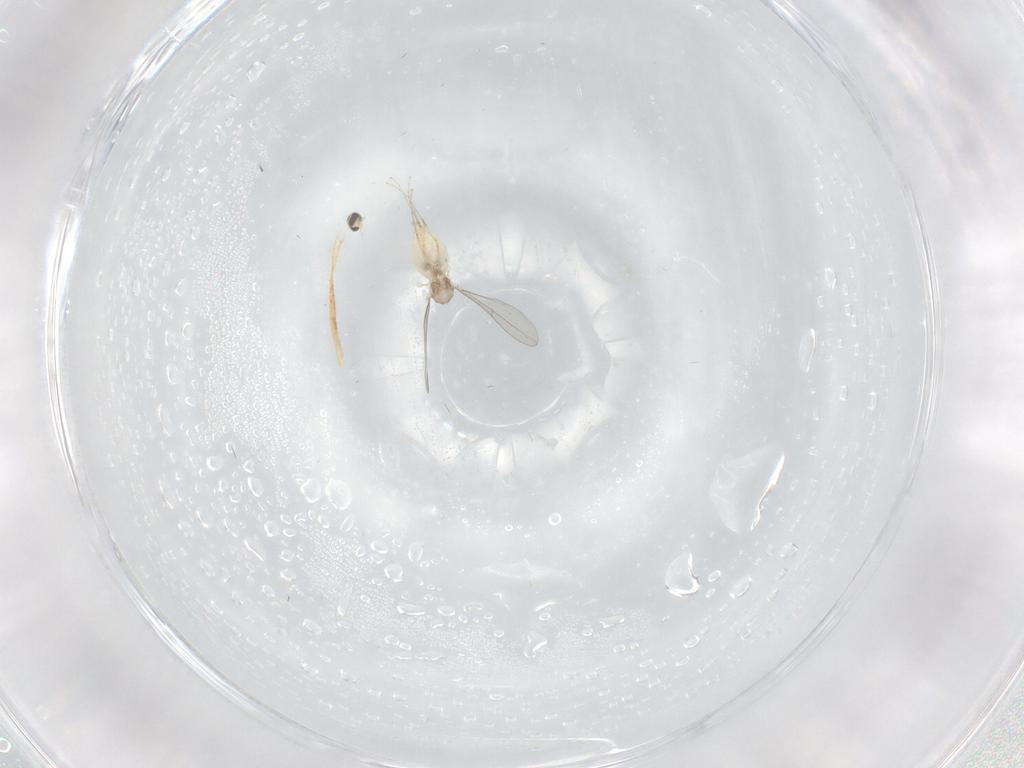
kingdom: Animalia
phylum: Arthropoda
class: Insecta
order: Diptera
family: Cecidomyiidae
